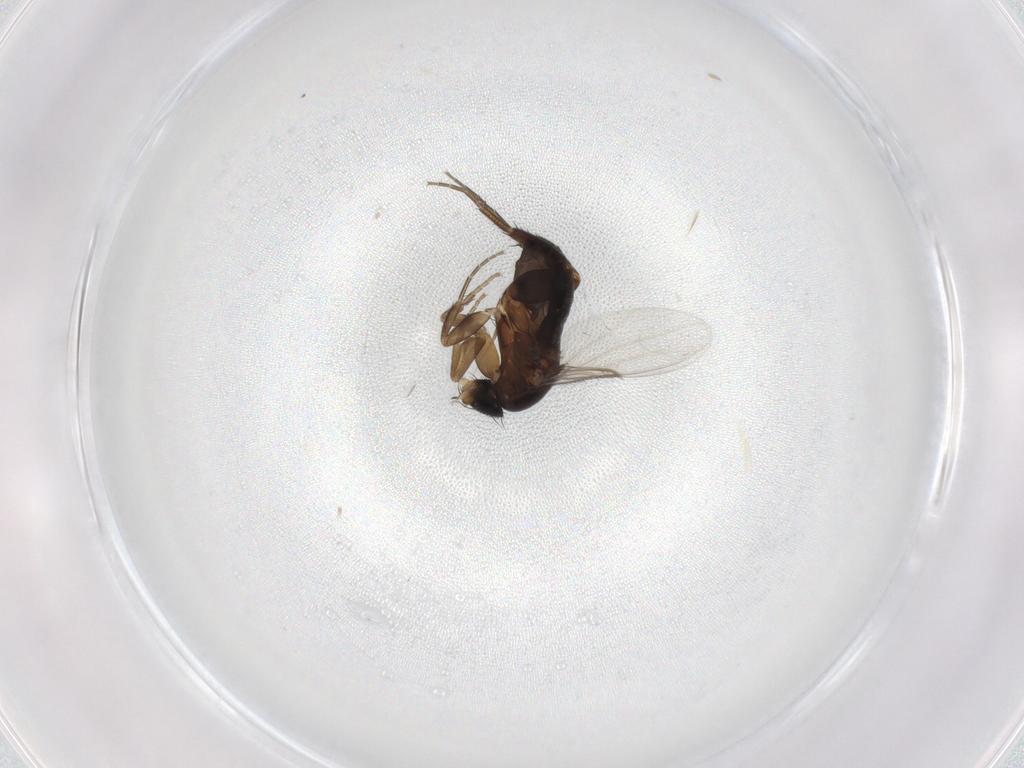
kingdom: Animalia
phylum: Arthropoda
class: Insecta
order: Diptera
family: Phoridae
